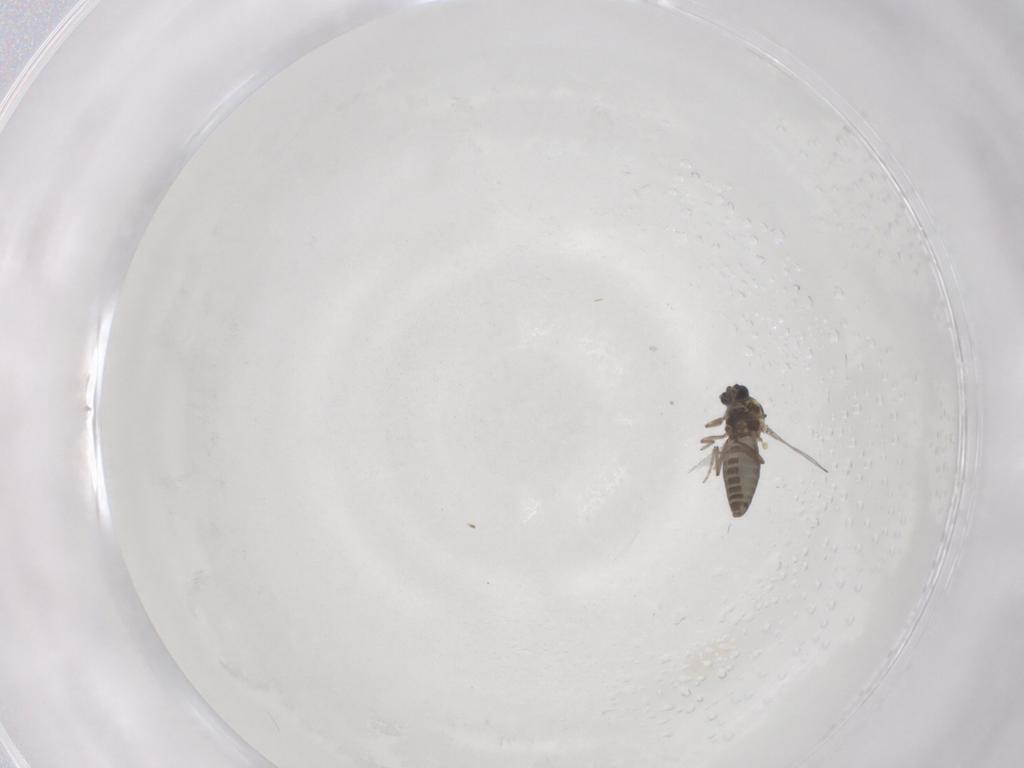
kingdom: Animalia
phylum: Arthropoda
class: Insecta
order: Diptera
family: Ceratopogonidae
